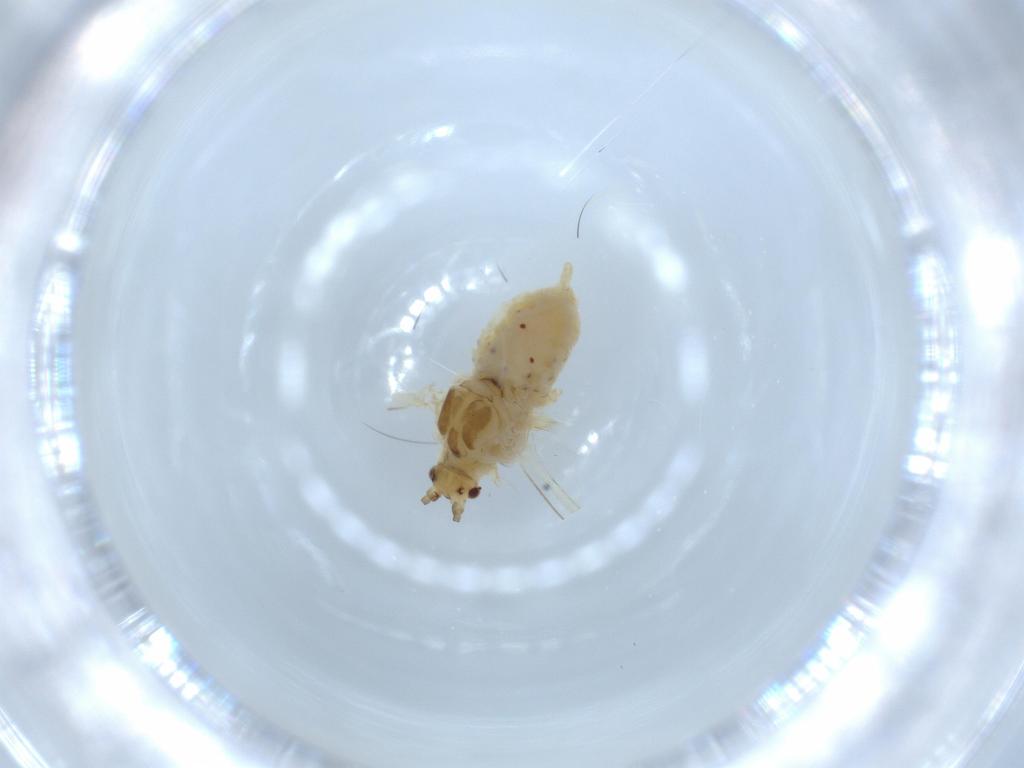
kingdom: Animalia
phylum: Arthropoda
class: Insecta
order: Hemiptera
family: Aphididae
